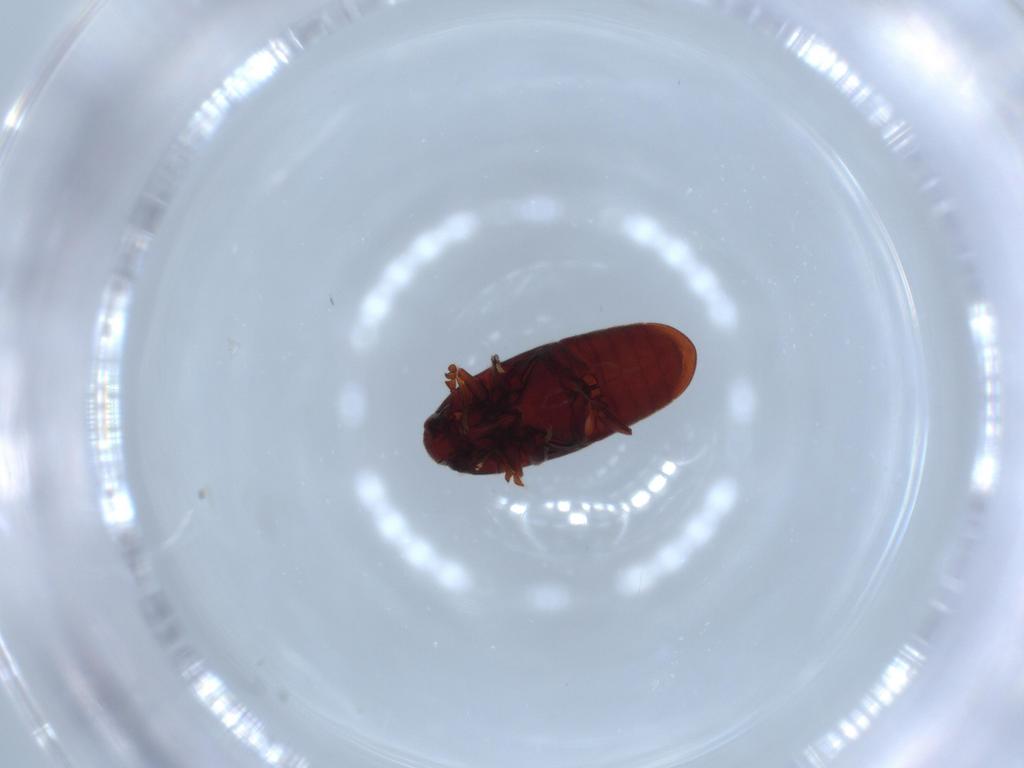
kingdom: Animalia
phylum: Arthropoda
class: Insecta
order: Coleoptera
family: Throscidae
